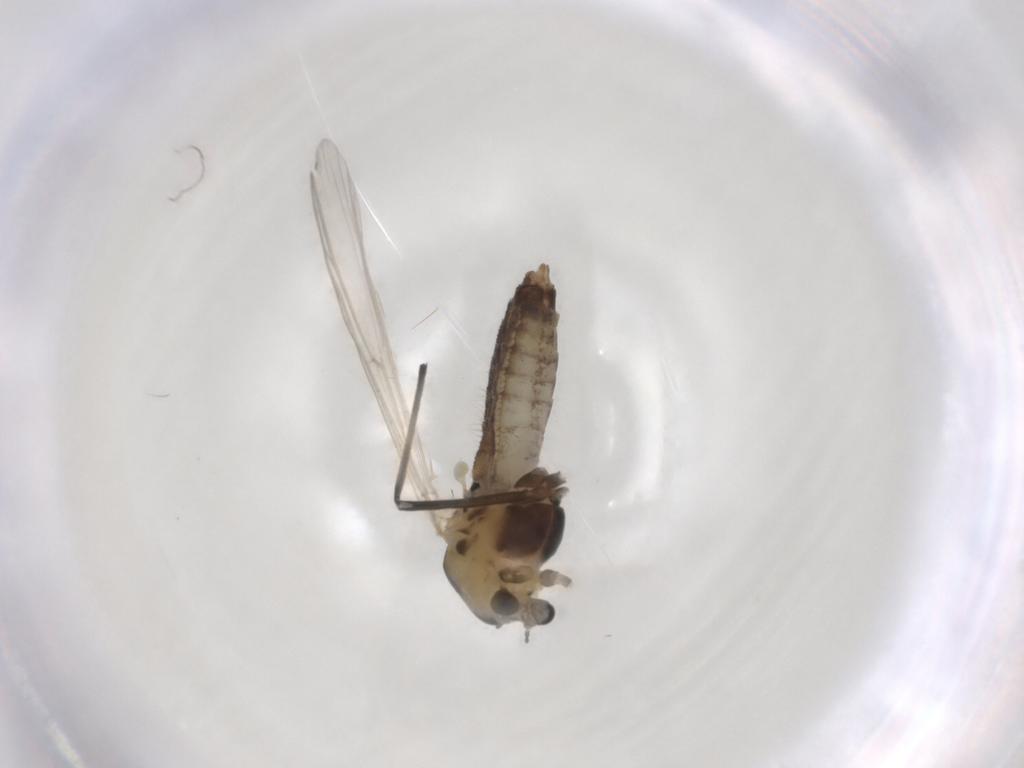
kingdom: Animalia
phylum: Arthropoda
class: Insecta
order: Diptera
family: Chironomidae
